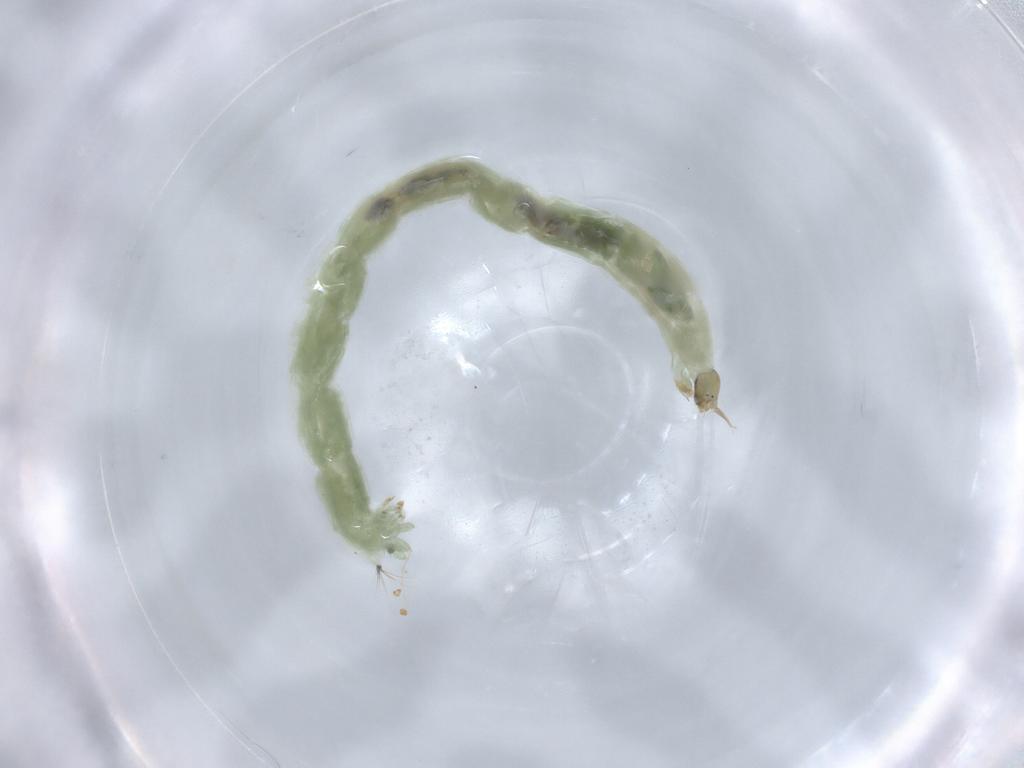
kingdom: Animalia
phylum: Arthropoda
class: Insecta
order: Diptera
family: Chironomidae
